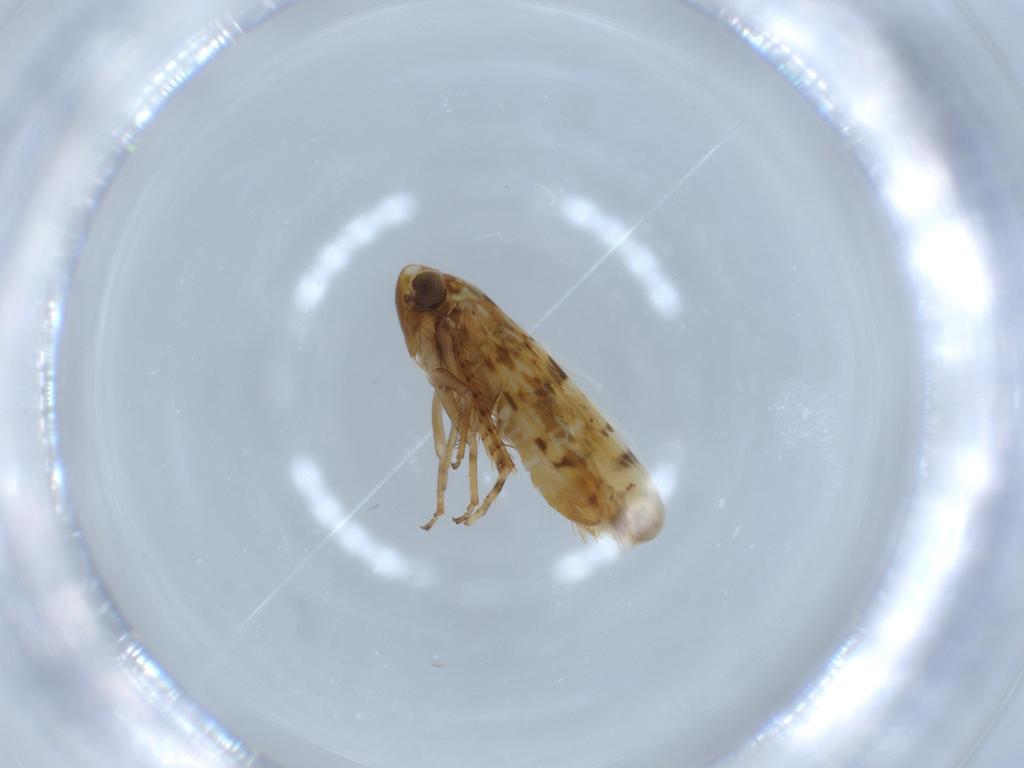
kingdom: Animalia
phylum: Arthropoda
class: Insecta
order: Hemiptera
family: Cicadellidae
